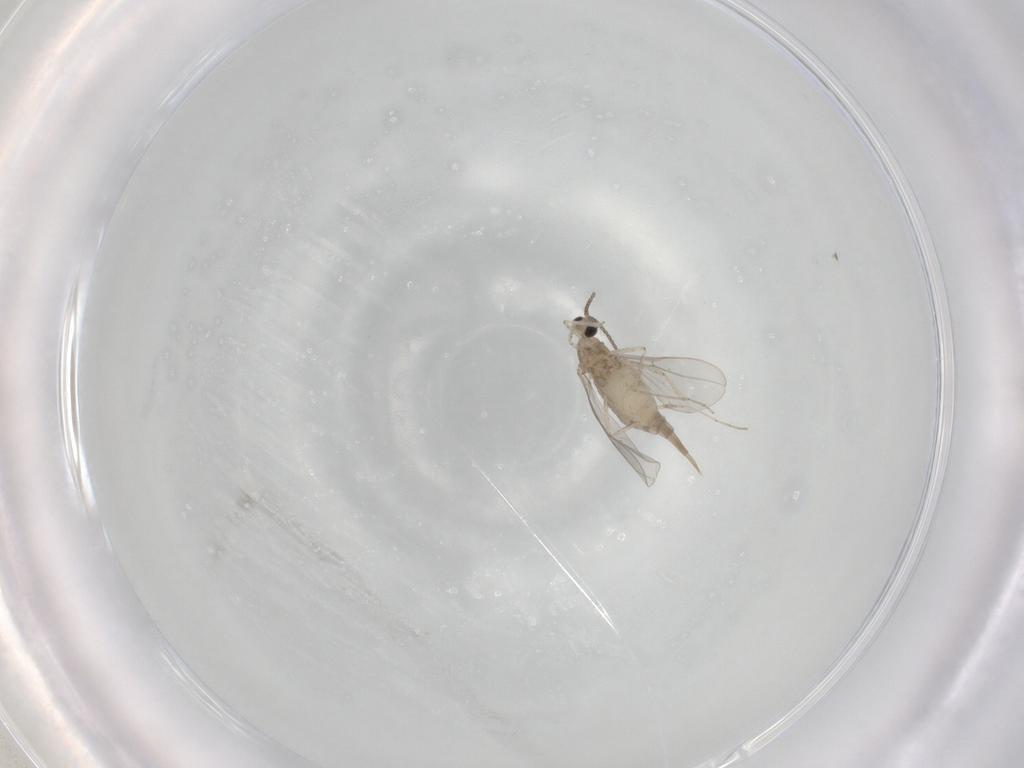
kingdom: Animalia
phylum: Arthropoda
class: Insecta
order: Diptera
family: Cecidomyiidae
